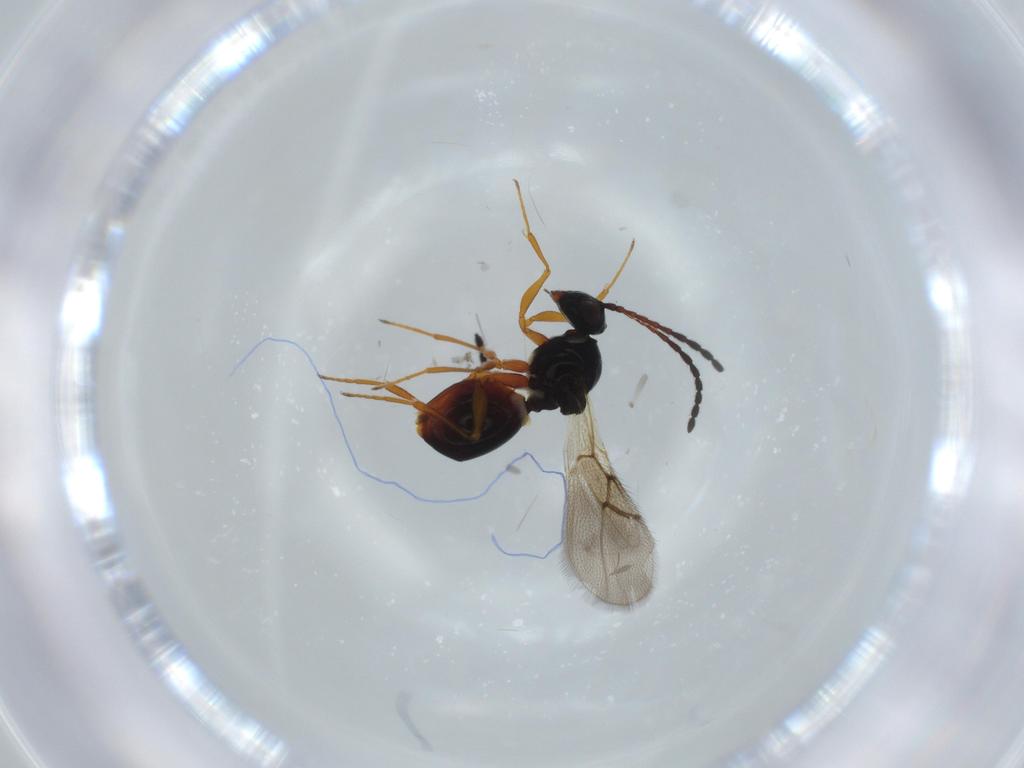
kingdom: Animalia
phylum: Arthropoda
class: Insecta
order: Hymenoptera
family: Figitidae
